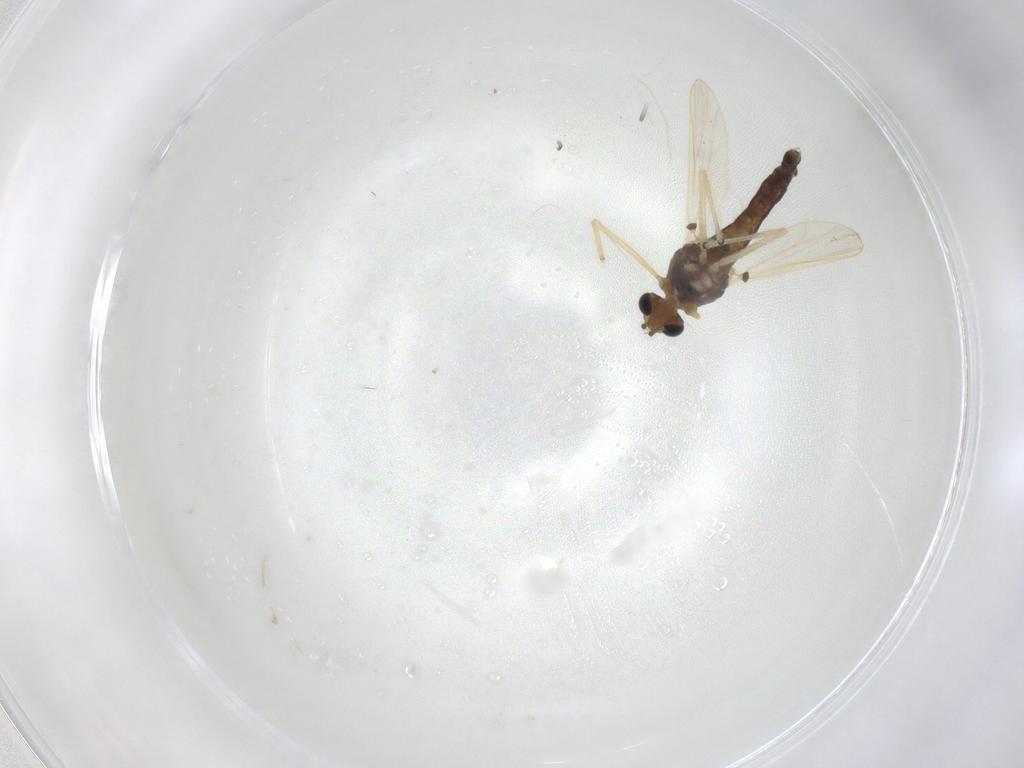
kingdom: Animalia
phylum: Arthropoda
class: Insecta
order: Diptera
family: Chironomidae
